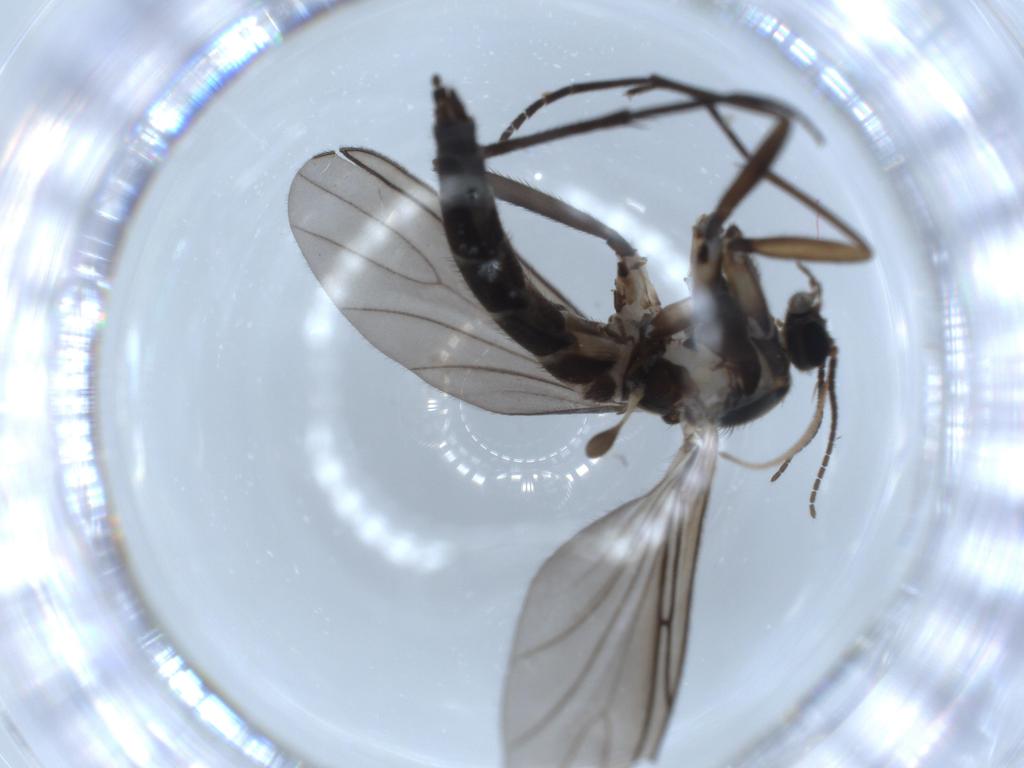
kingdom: Animalia
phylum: Arthropoda
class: Insecta
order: Diptera
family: Sciaridae
